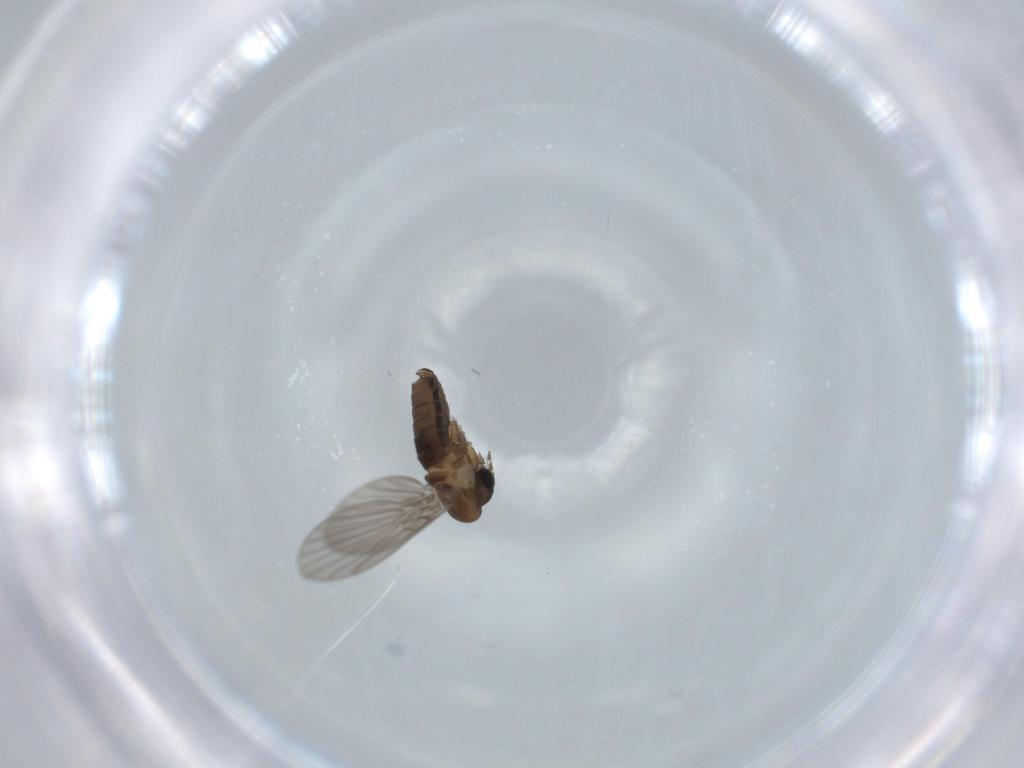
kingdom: Animalia
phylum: Arthropoda
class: Insecta
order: Diptera
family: Psychodidae
